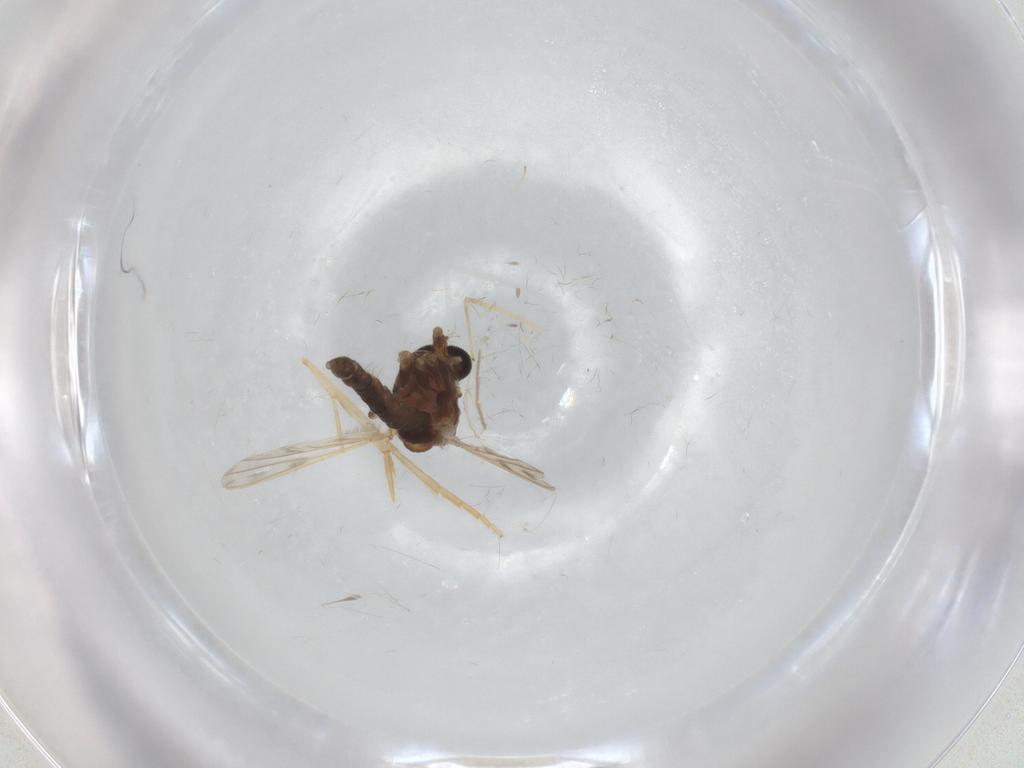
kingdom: Animalia
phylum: Arthropoda
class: Insecta
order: Diptera
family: Chironomidae
